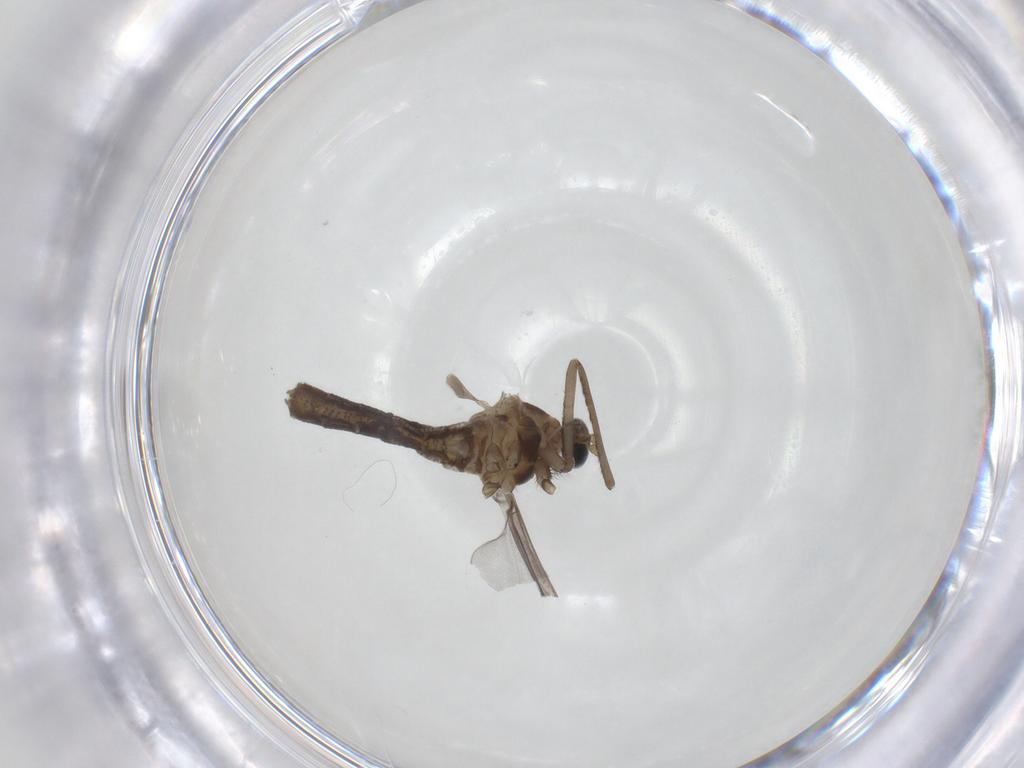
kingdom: Animalia
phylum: Arthropoda
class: Insecta
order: Diptera
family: Cecidomyiidae
